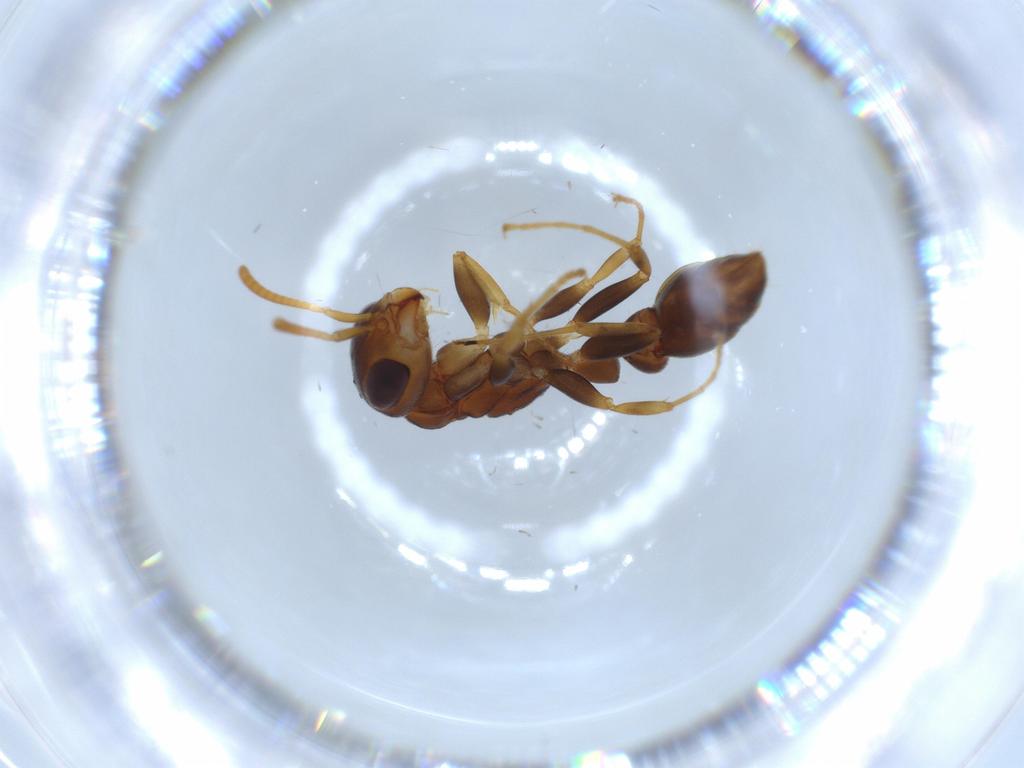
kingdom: Animalia
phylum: Arthropoda
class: Insecta
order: Hymenoptera
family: Formicidae
